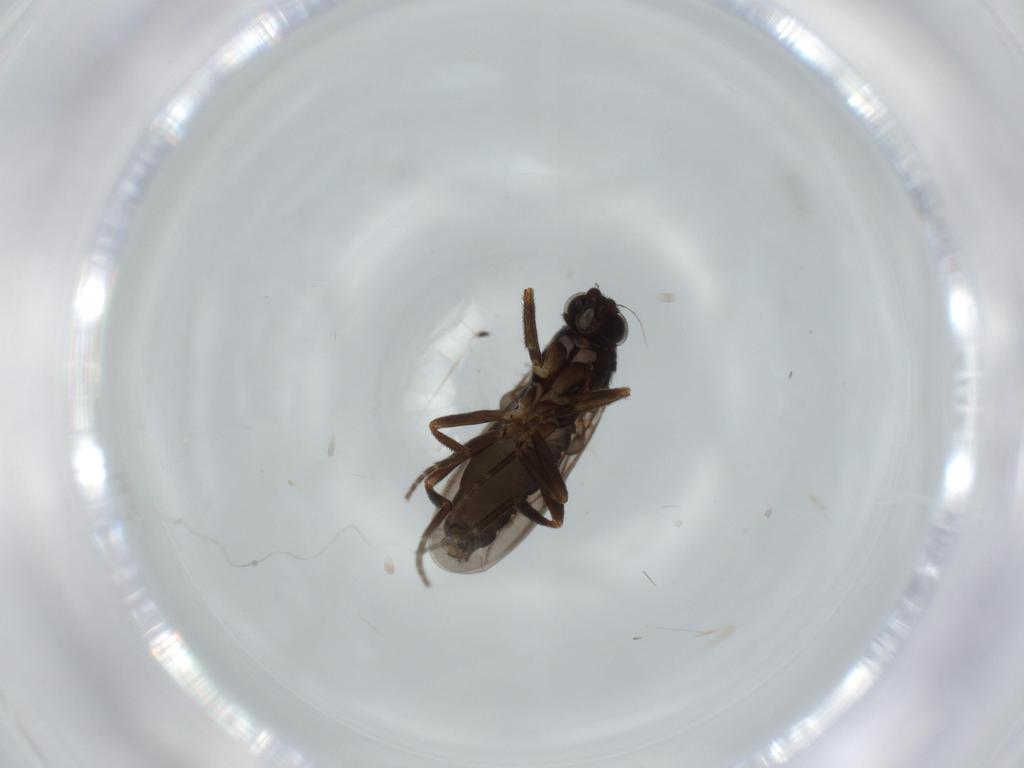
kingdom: Animalia
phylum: Arthropoda
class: Insecta
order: Diptera
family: Phoridae
